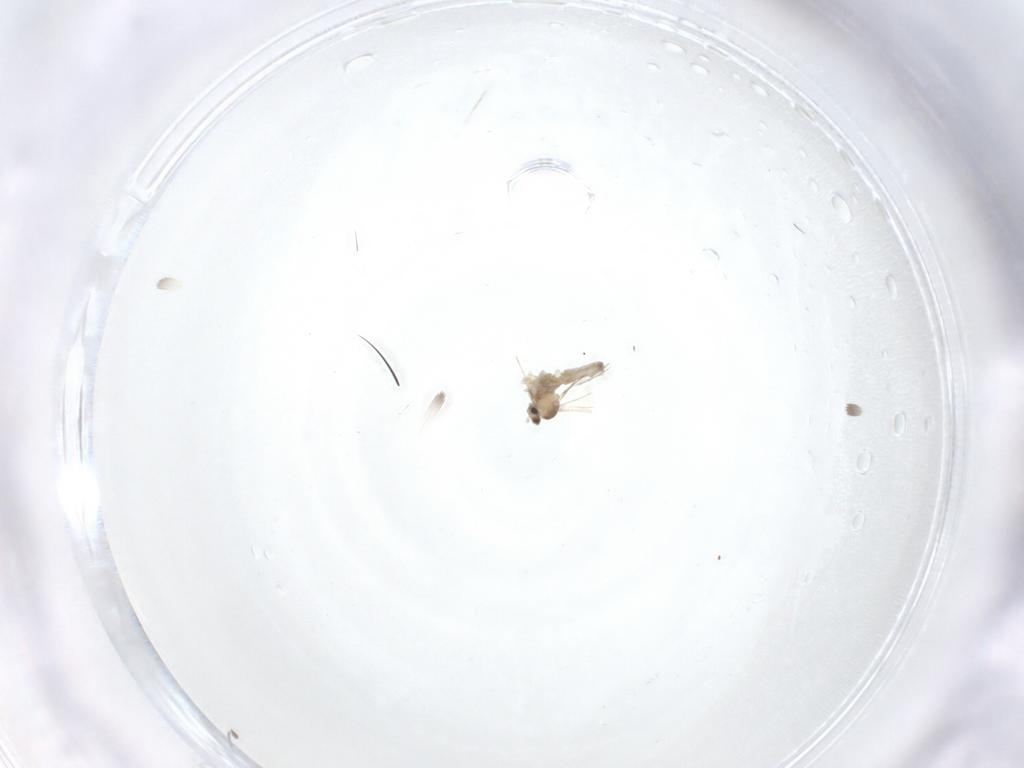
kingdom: Animalia
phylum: Arthropoda
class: Insecta
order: Diptera
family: Cecidomyiidae
